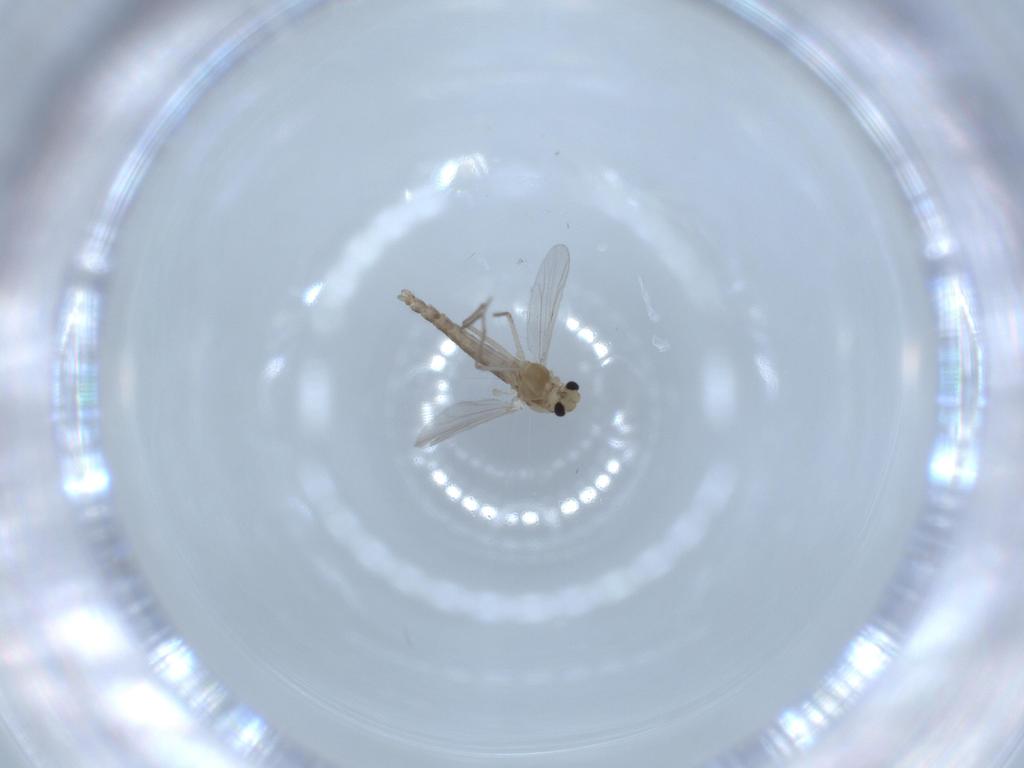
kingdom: Animalia
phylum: Arthropoda
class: Insecta
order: Diptera
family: Chironomidae
